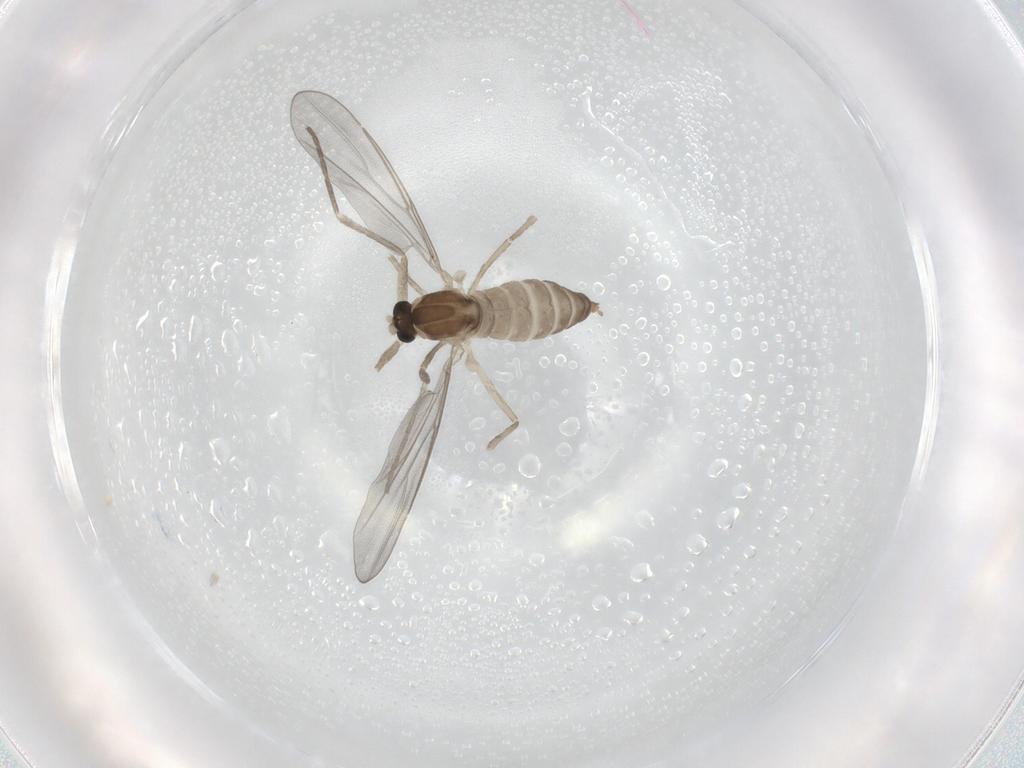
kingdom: Animalia
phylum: Arthropoda
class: Insecta
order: Diptera
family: Cecidomyiidae
